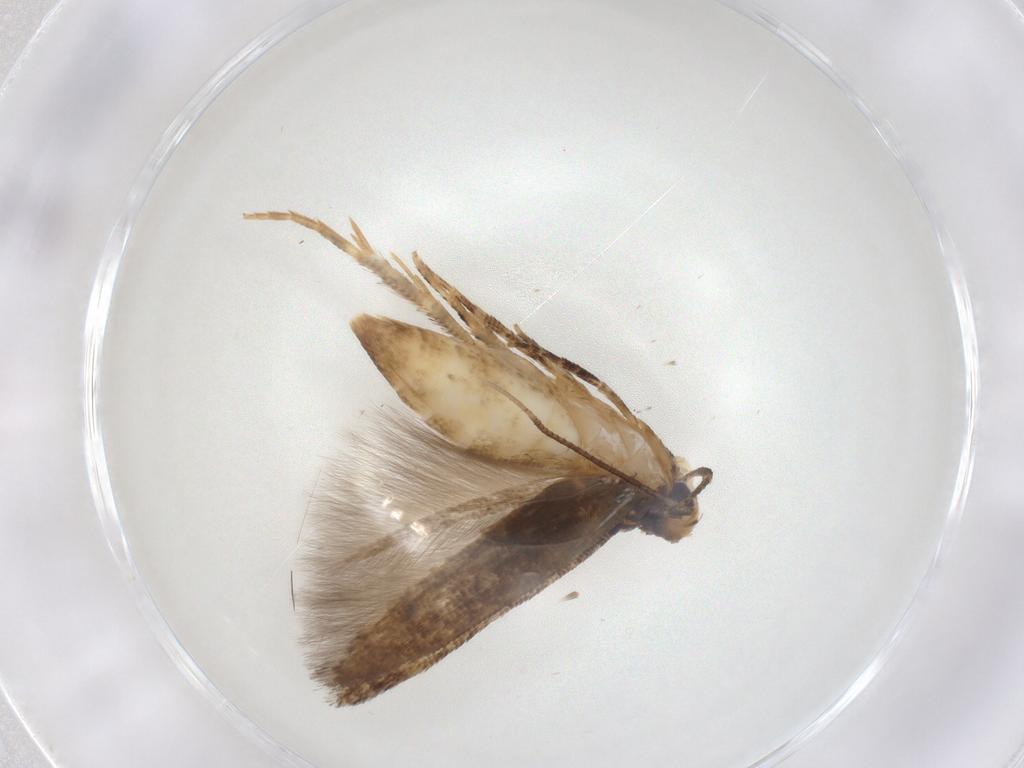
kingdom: Animalia
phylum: Arthropoda
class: Insecta
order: Lepidoptera
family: Cosmopterigidae
